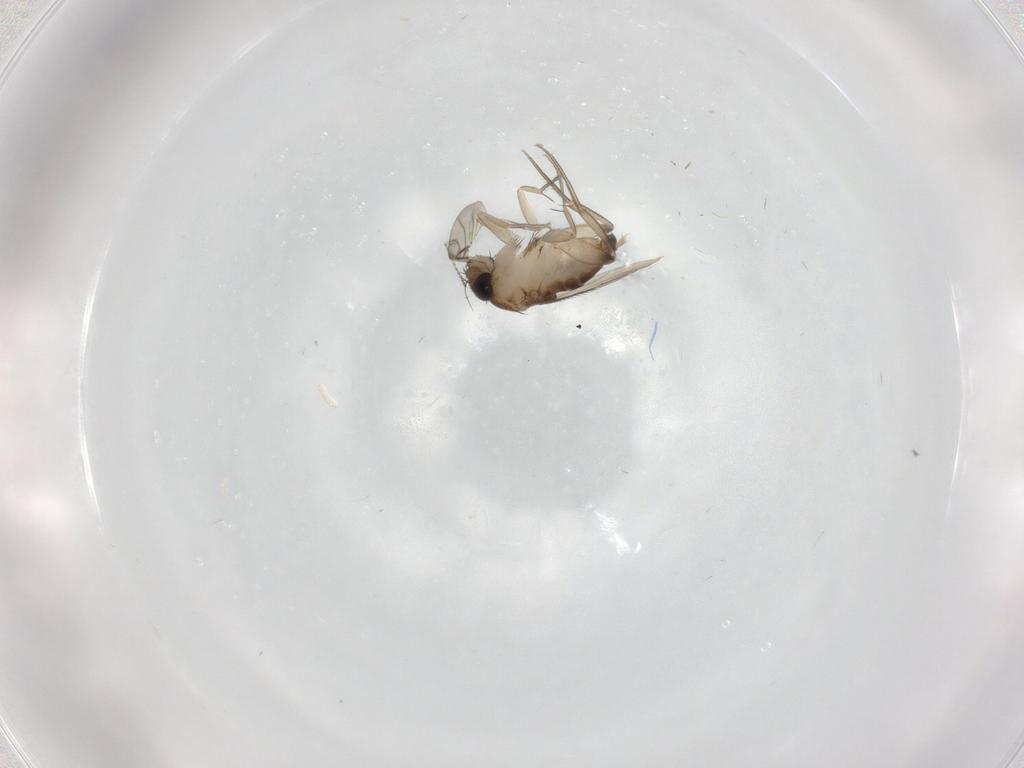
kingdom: Animalia
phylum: Arthropoda
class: Insecta
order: Diptera
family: Phoridae
